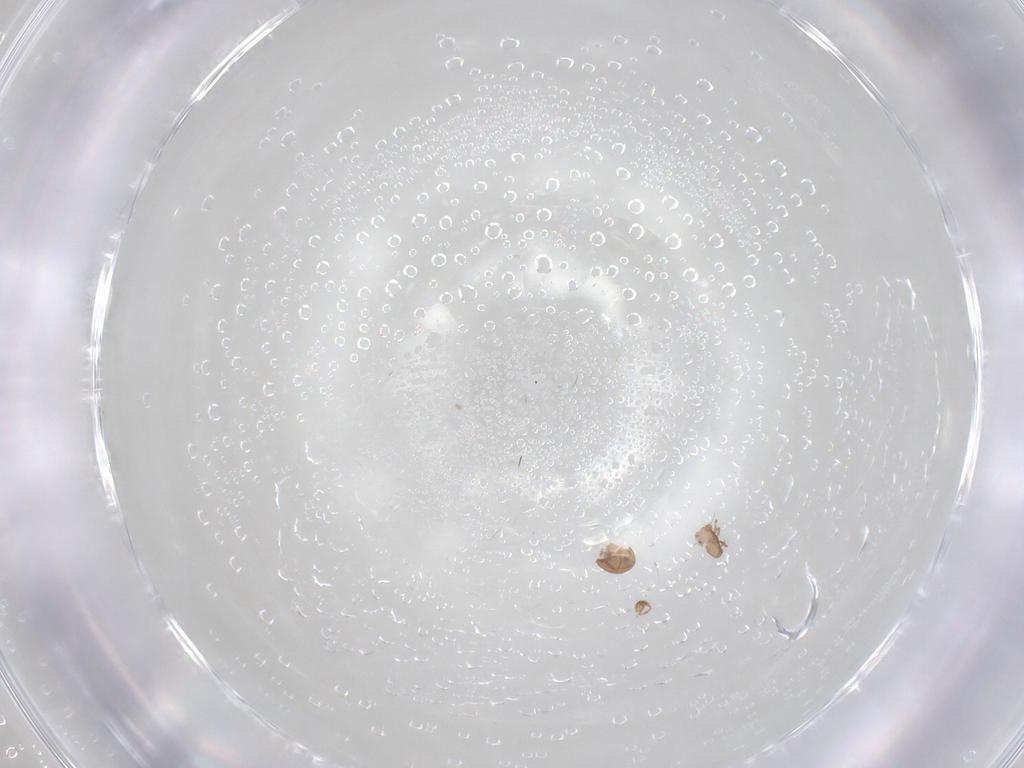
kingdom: Animalia
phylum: Arthropoda
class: Arachnida
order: Sarcoptiformes
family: Scheloribatidae
